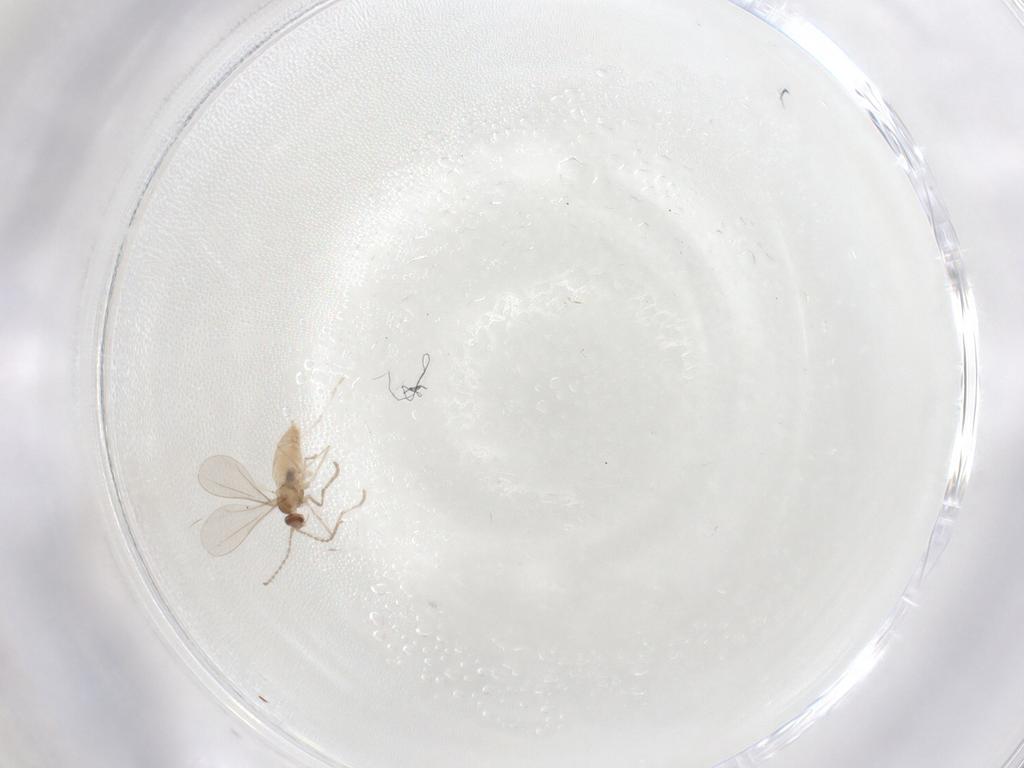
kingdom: Animalia
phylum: Arthropoda
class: Insecta
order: Diptera
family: Cecidomyiidae
